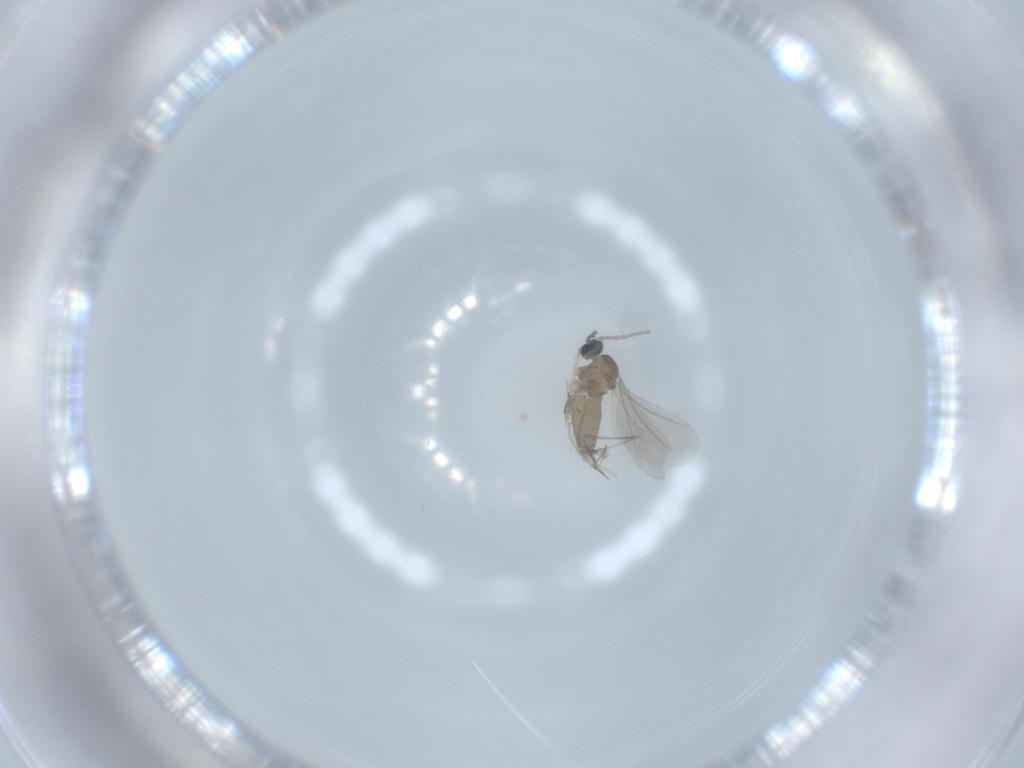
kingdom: Animalia
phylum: Arthropoda
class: Insecta
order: Diptera
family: Cecidomyiidae
